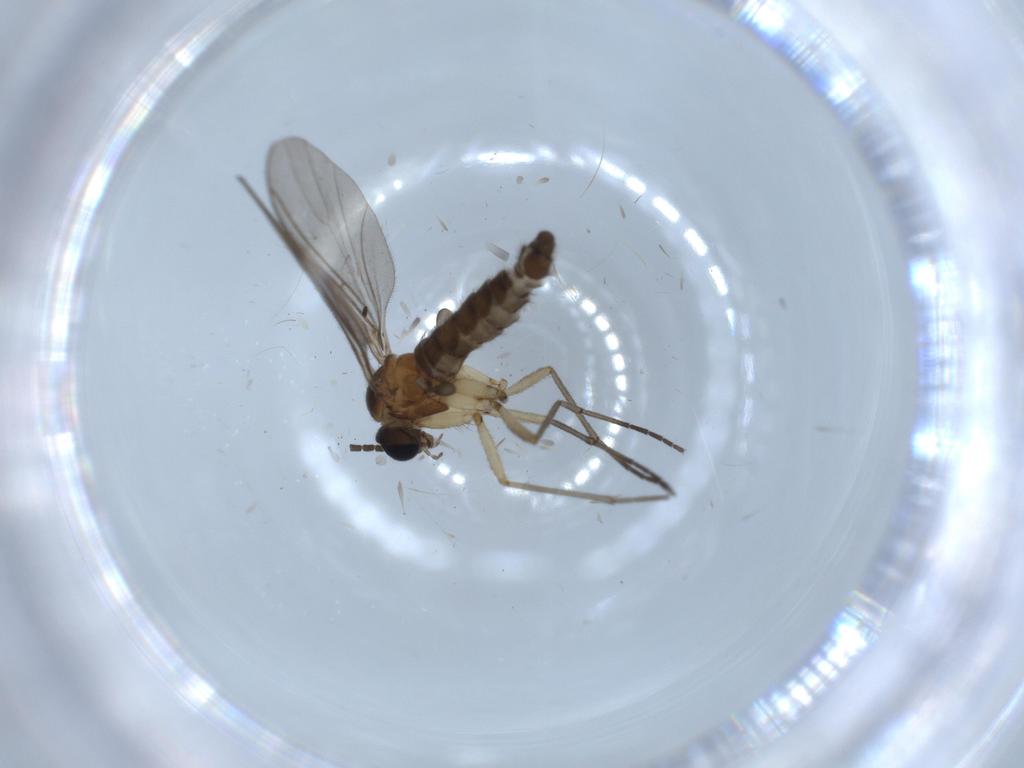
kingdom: Animalia
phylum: Arthropoda
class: Insecta
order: Diptera
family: Sciaridae
